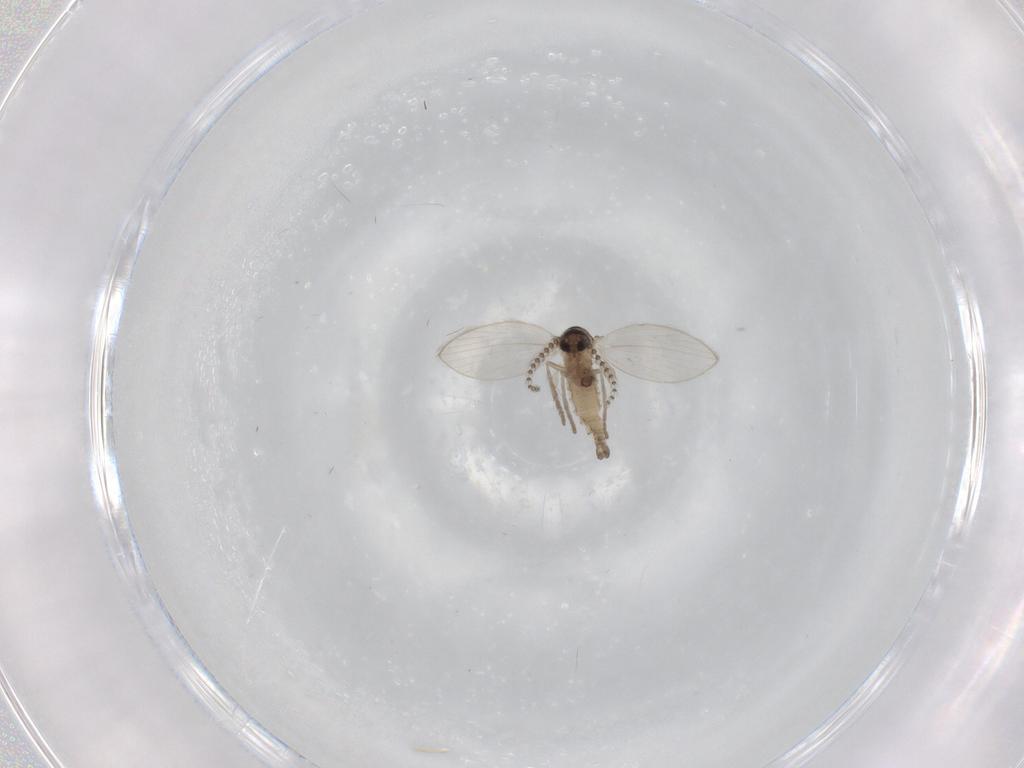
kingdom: Animalia
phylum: Arthropoda
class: Insecta
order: Diptera
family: Psychodidae
